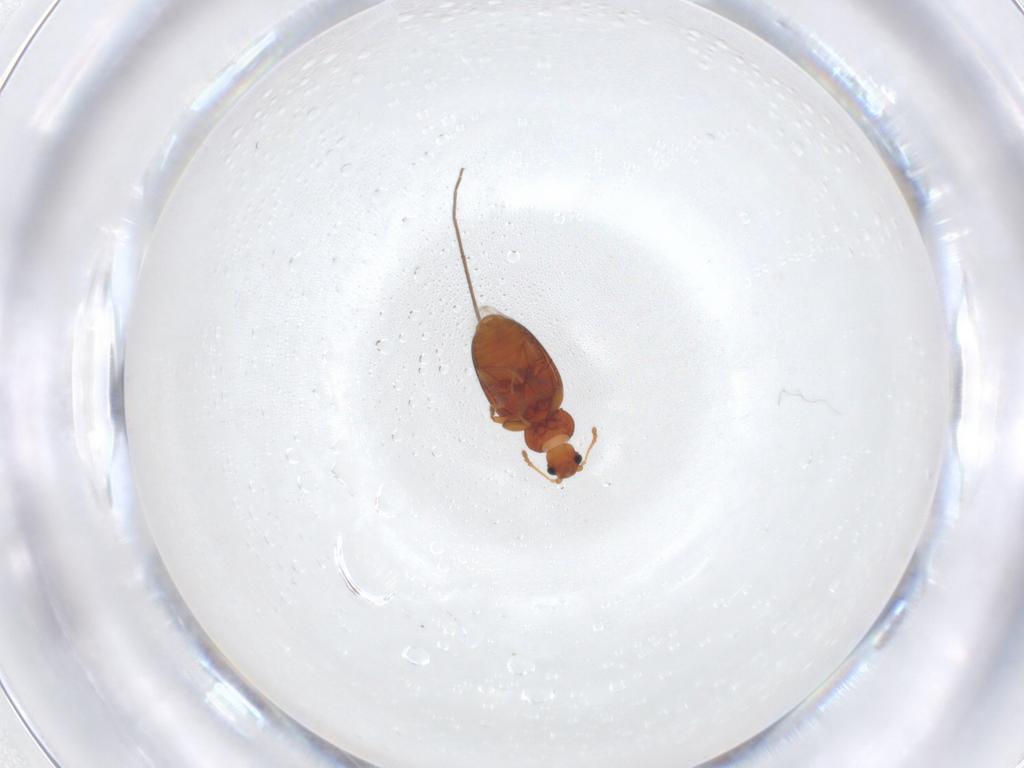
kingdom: Animalia
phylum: Arthropoda
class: Insecta
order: Coleoptera
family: Latridiidae
